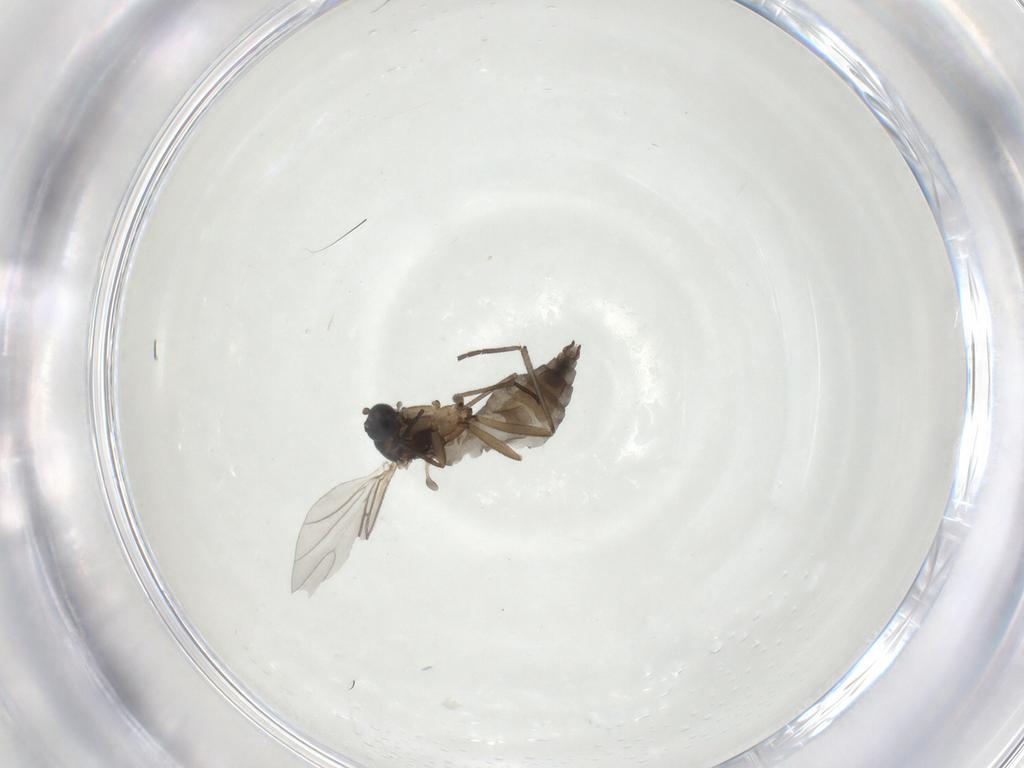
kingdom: Animalia
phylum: Arthropoda
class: Insecta
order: Diptera
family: Sciaridae
